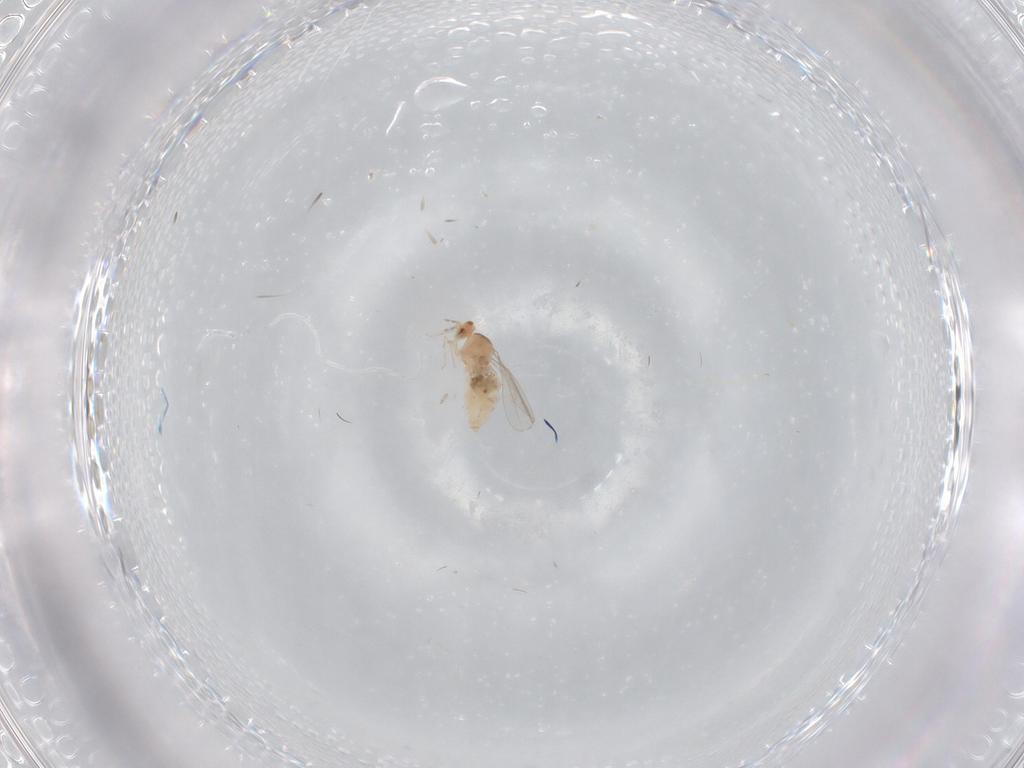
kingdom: Animalia
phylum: Arthropoda
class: Insecta
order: Diptera
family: Cecidomyiidae
